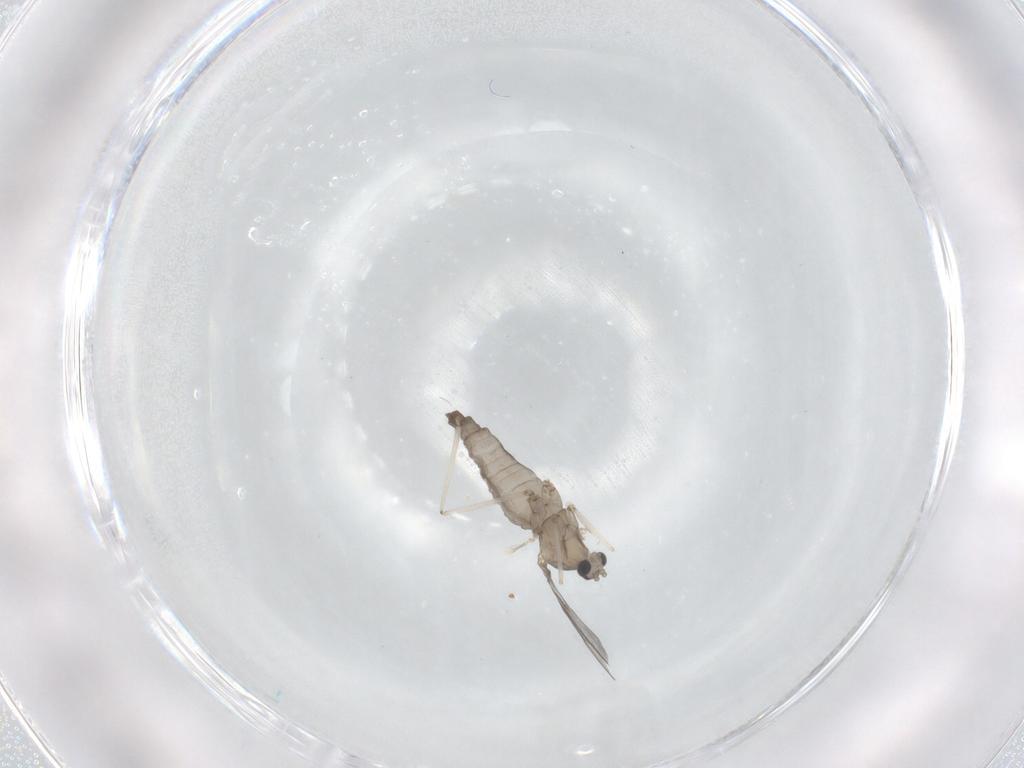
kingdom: Animalia
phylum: Arthropoda
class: Insecta
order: Diptera
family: Cecidomyiidae
